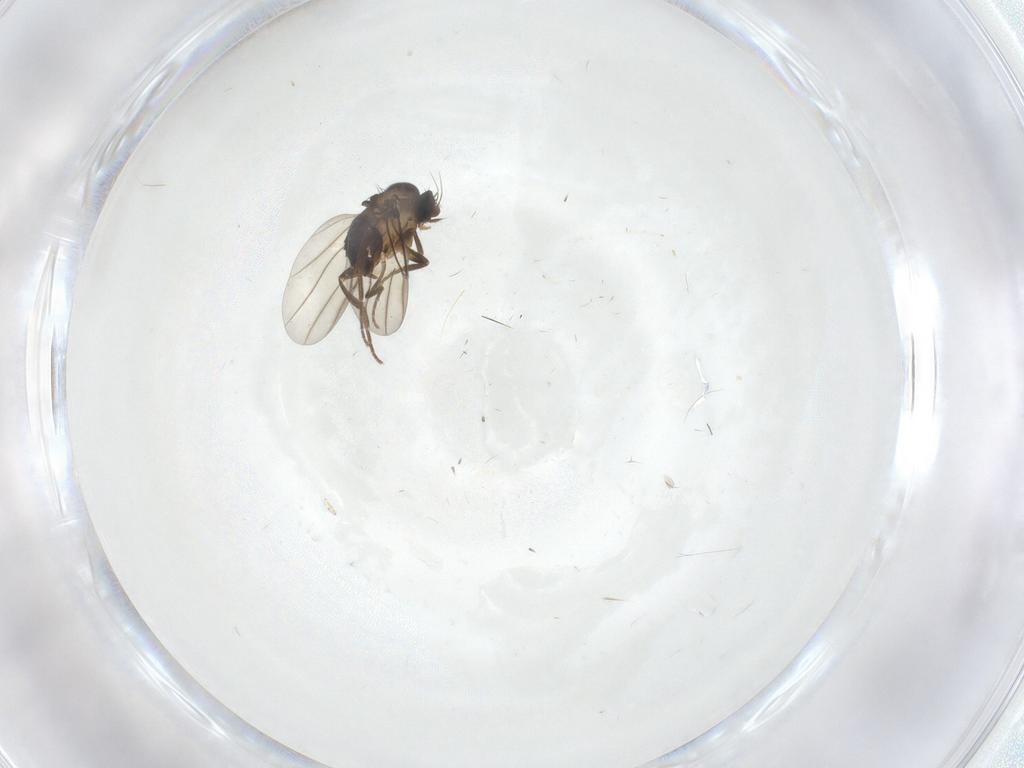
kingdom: Animalia
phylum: Arthropoda
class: Insecta
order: Diptera
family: Phoridae
